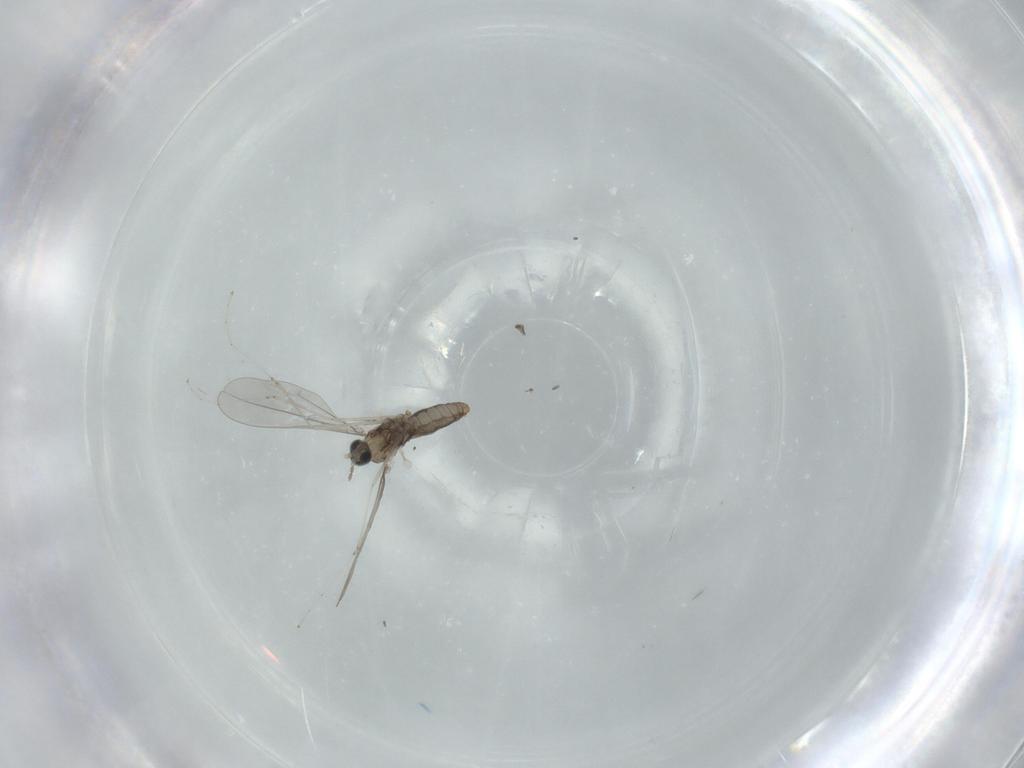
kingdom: Animalia
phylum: Arthropoda
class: Insecta
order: Diptera
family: Cecidomyiidae
